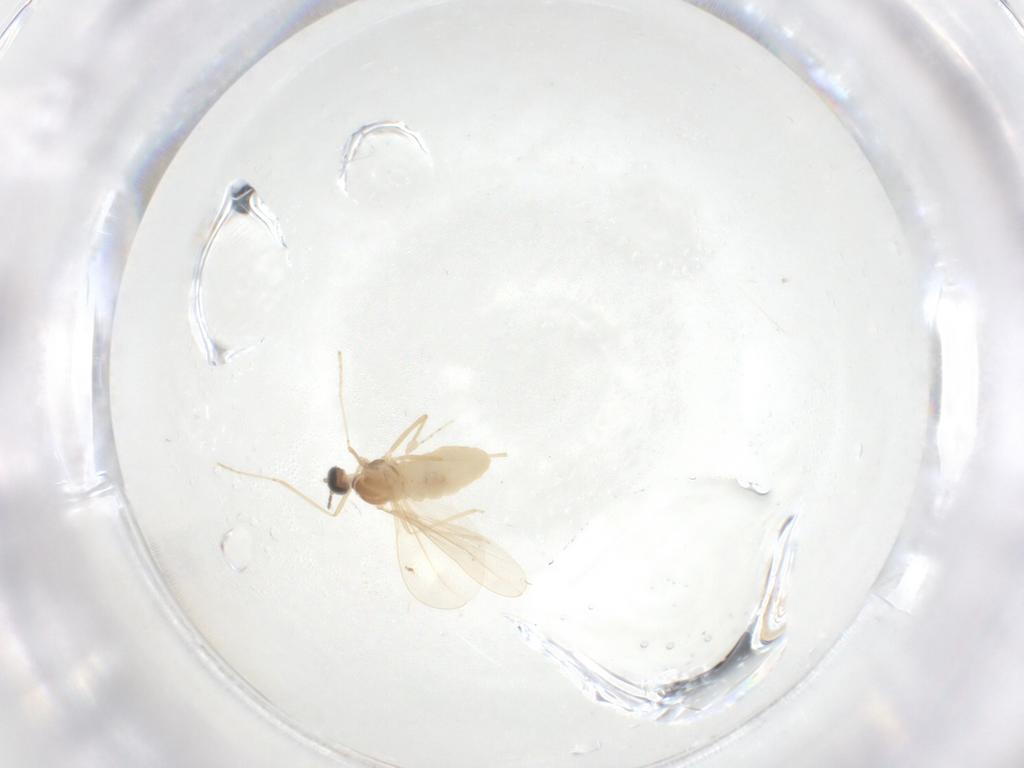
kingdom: Animalia
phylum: Arthropoda
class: Insecta
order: Diptera
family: Cecidomyiidae
